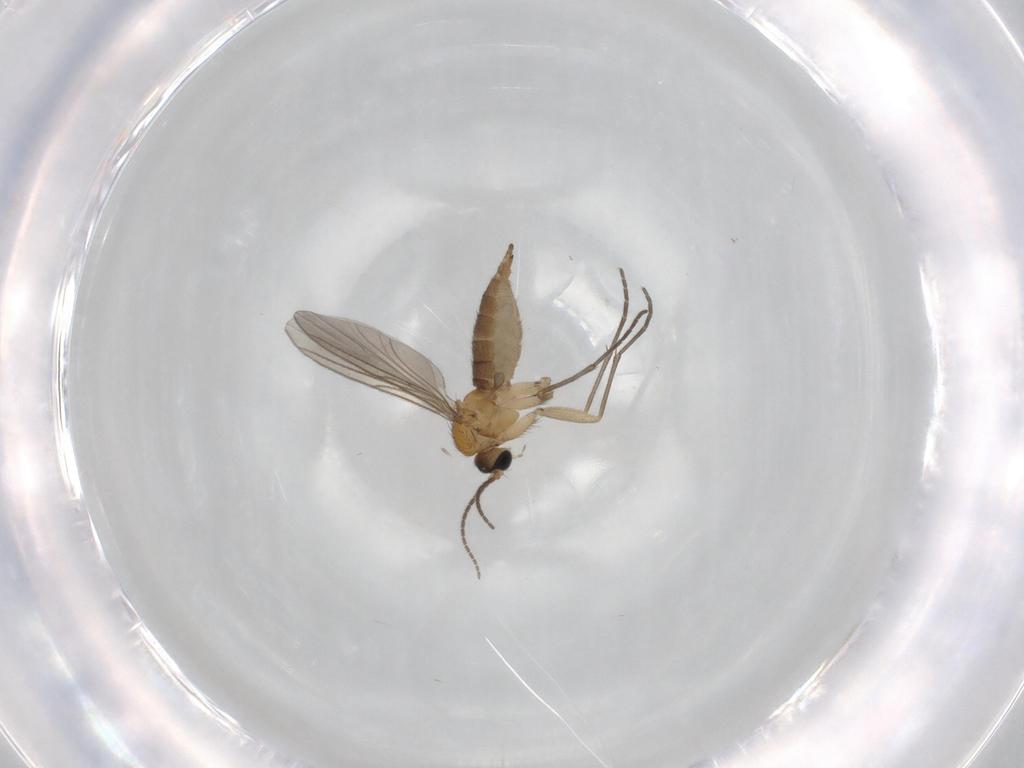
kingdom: Animalia
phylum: Arthropoda
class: Insecta
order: Diptera
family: Sciaridae
